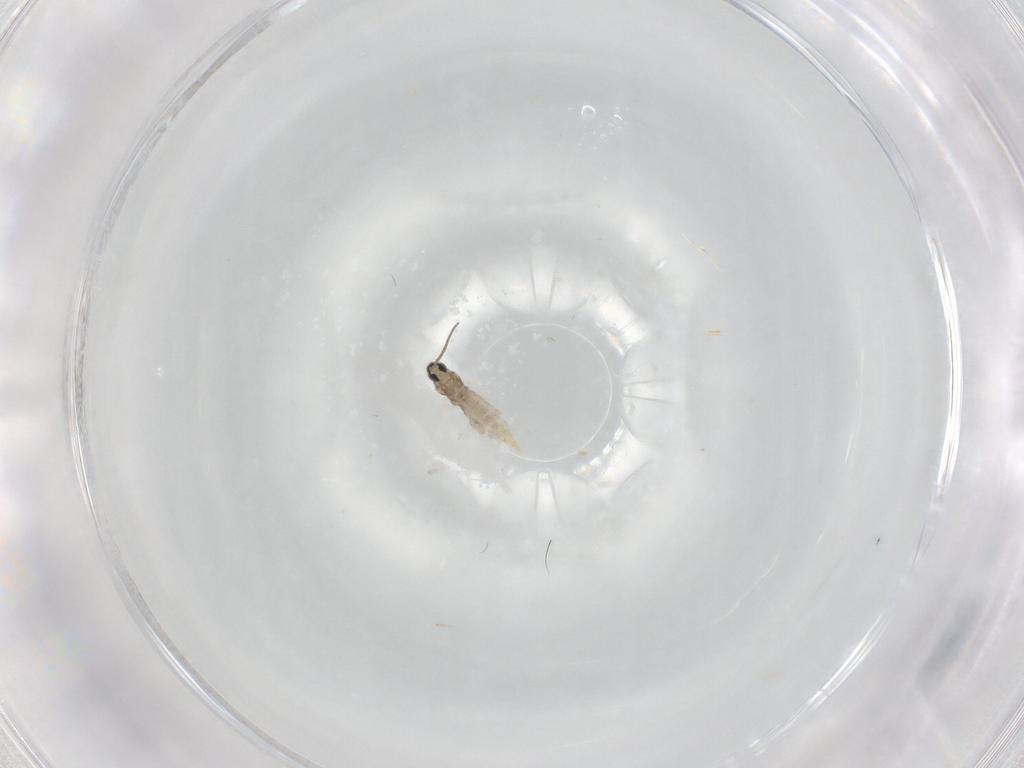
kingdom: Animalia
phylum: Arthropoda
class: Insecta
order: Diptera
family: Cecidomyiidae
